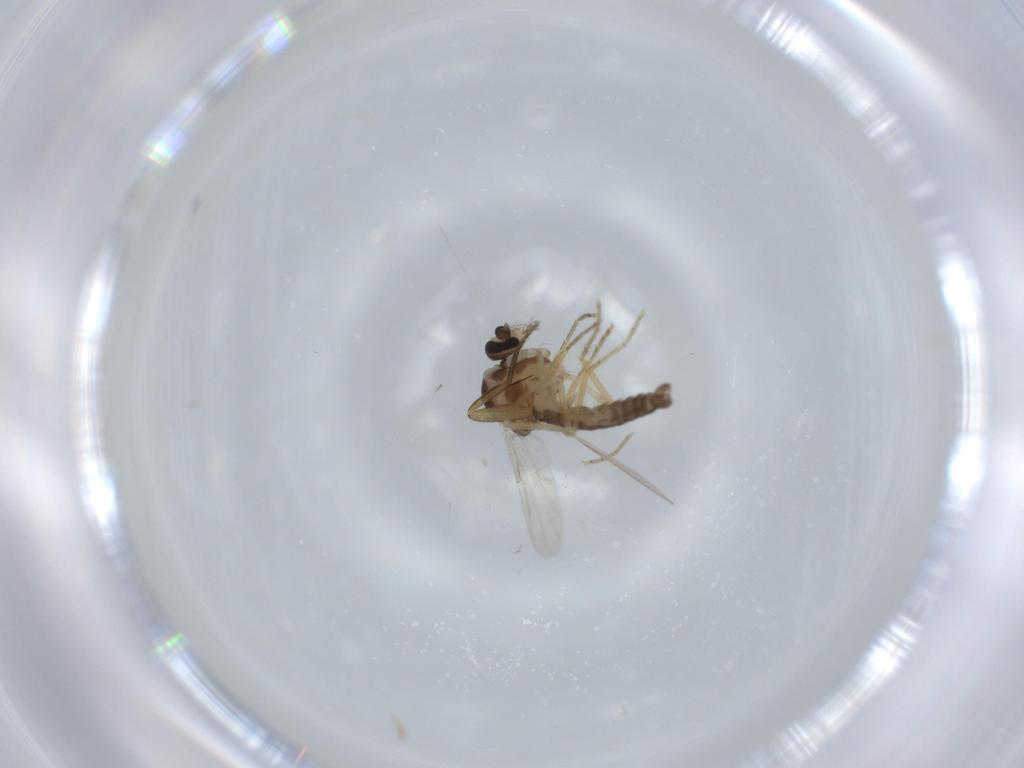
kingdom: Animalia
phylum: Arthropoda
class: Insecta
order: Diptera
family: Ceratopogonidae
